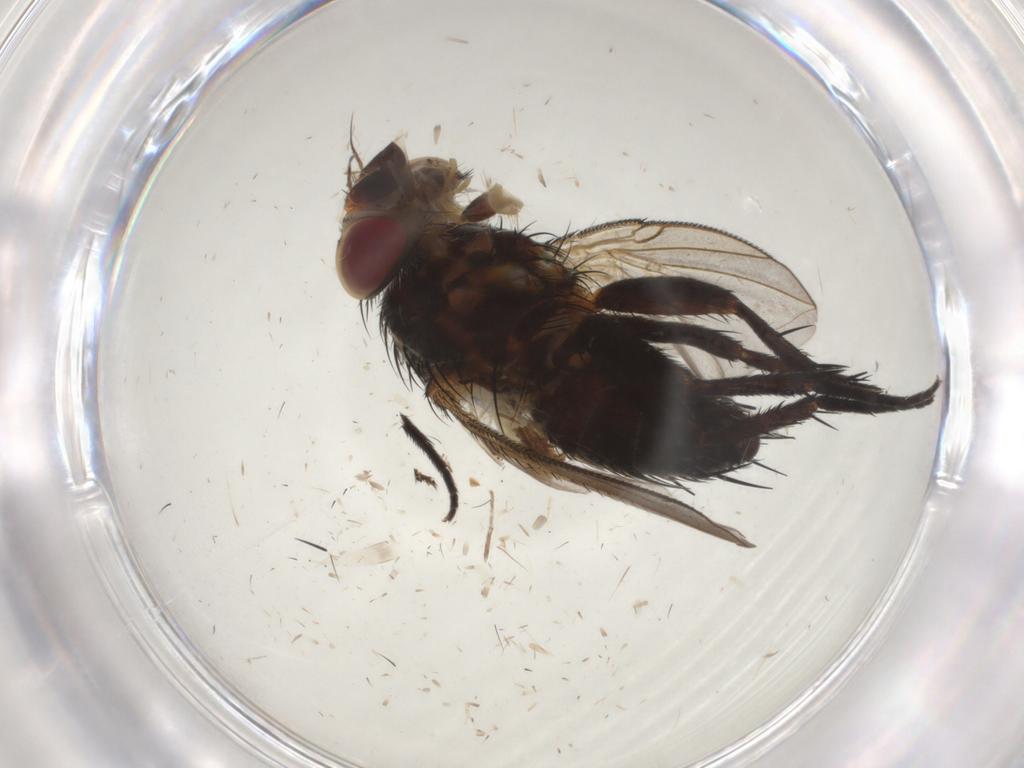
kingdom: Animalia
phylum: Arthropoda
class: Insecta
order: Diptera
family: Tachinidae
